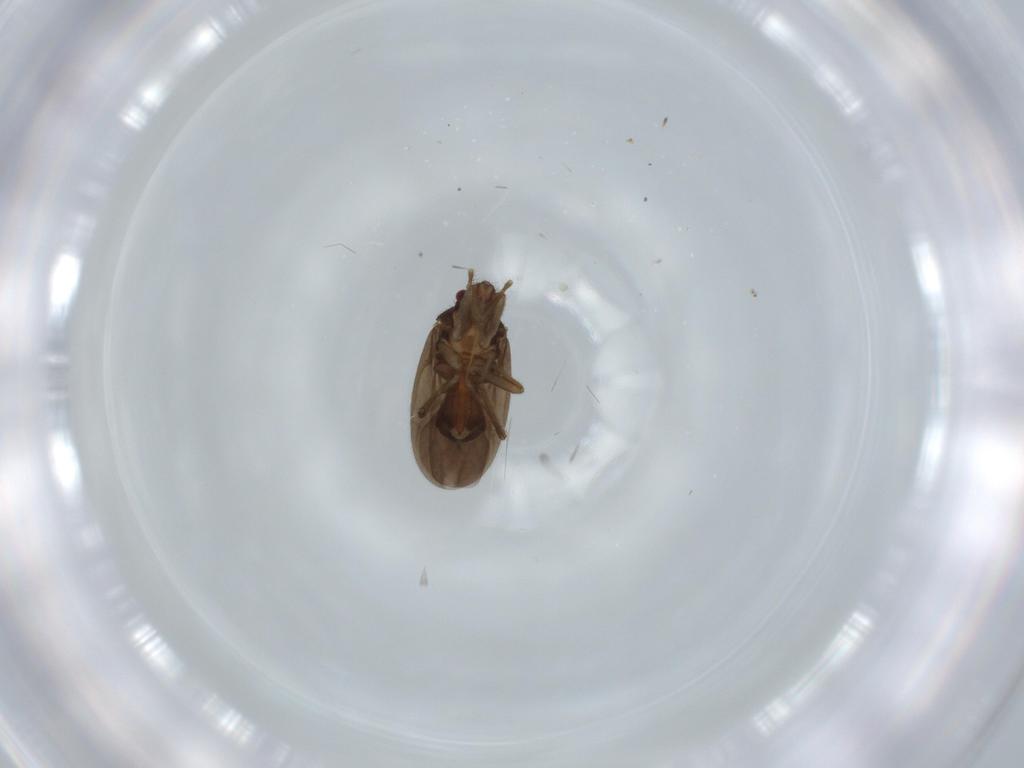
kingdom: Animalia
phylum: Arthropoda
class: Insecta
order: Hemiptera
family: Ceratocombidae
